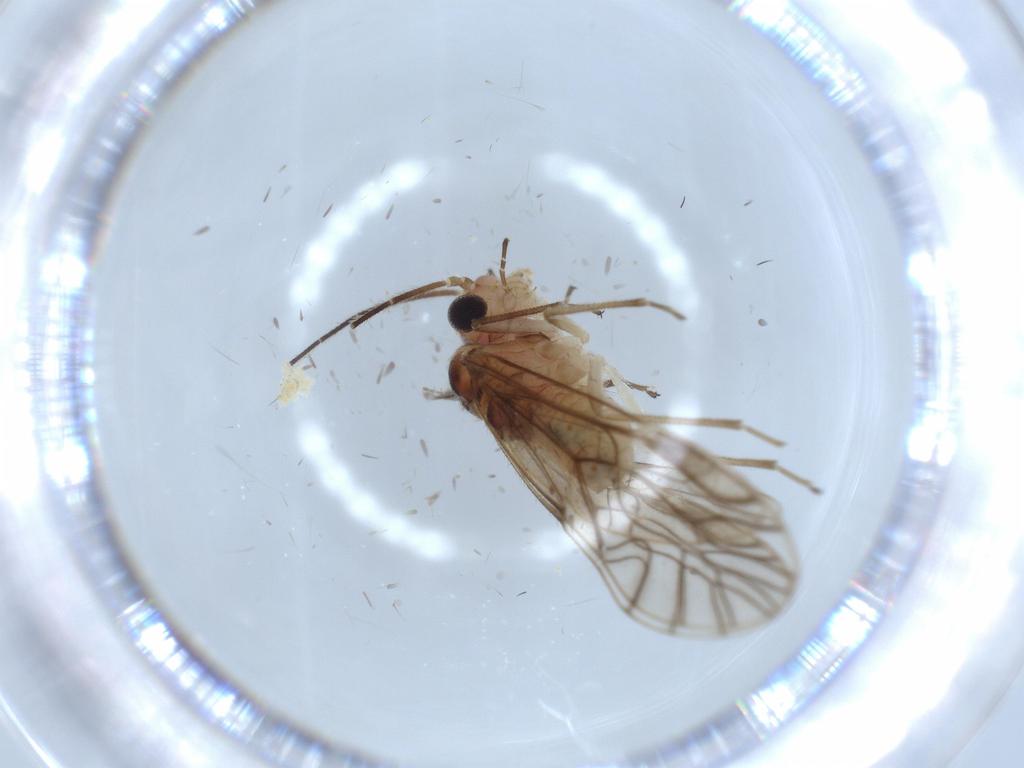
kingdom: Animalia
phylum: Arthropoda
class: Insecta
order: Psocodea
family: Amphipsocidae
